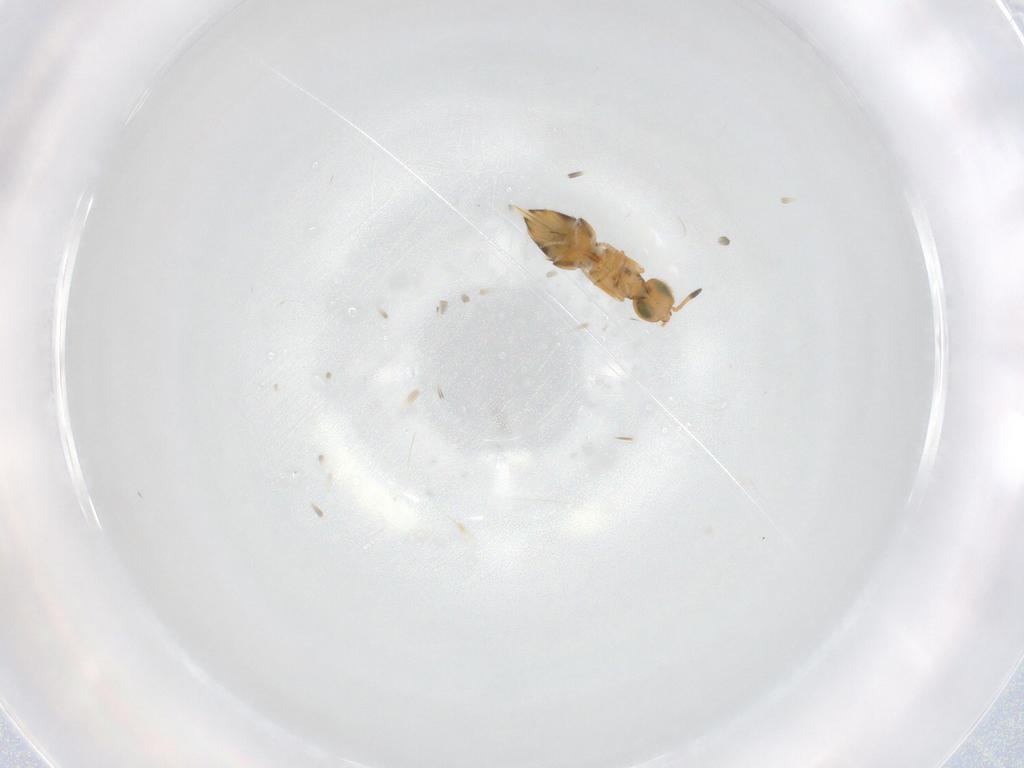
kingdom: Animalia
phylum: Arthropoda
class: Insecta
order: Hymenoptera
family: Encyrtidae
